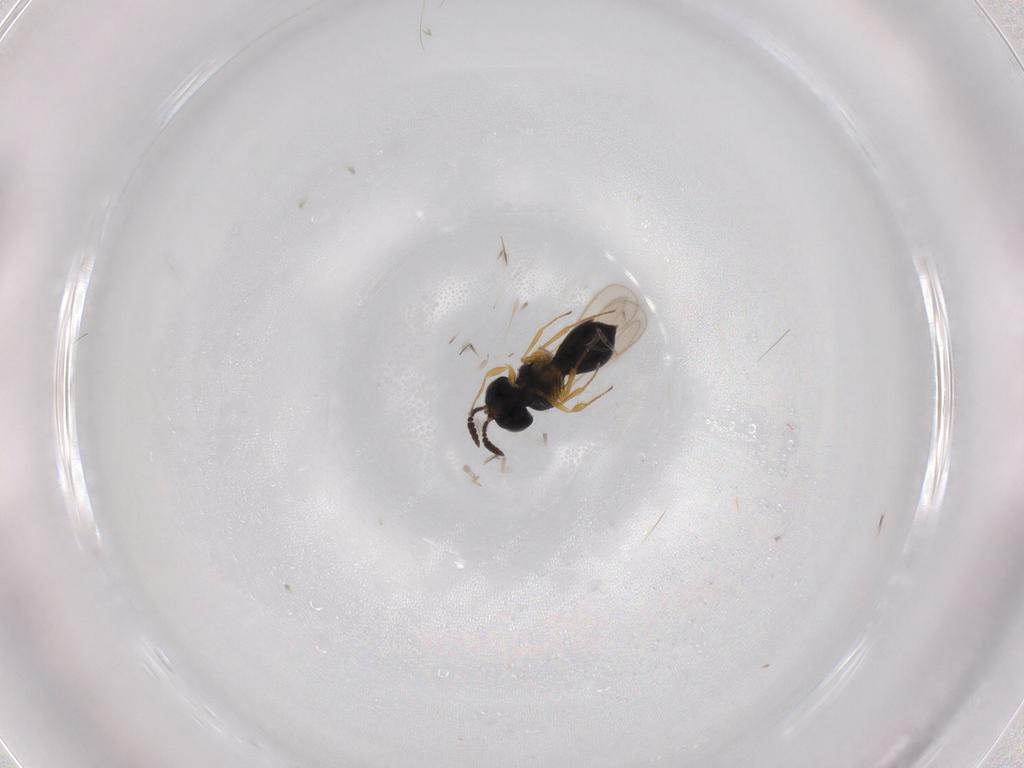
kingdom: Animalia
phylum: Arthropoda
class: Insecta
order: Hymenoptera
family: Scelionidae
